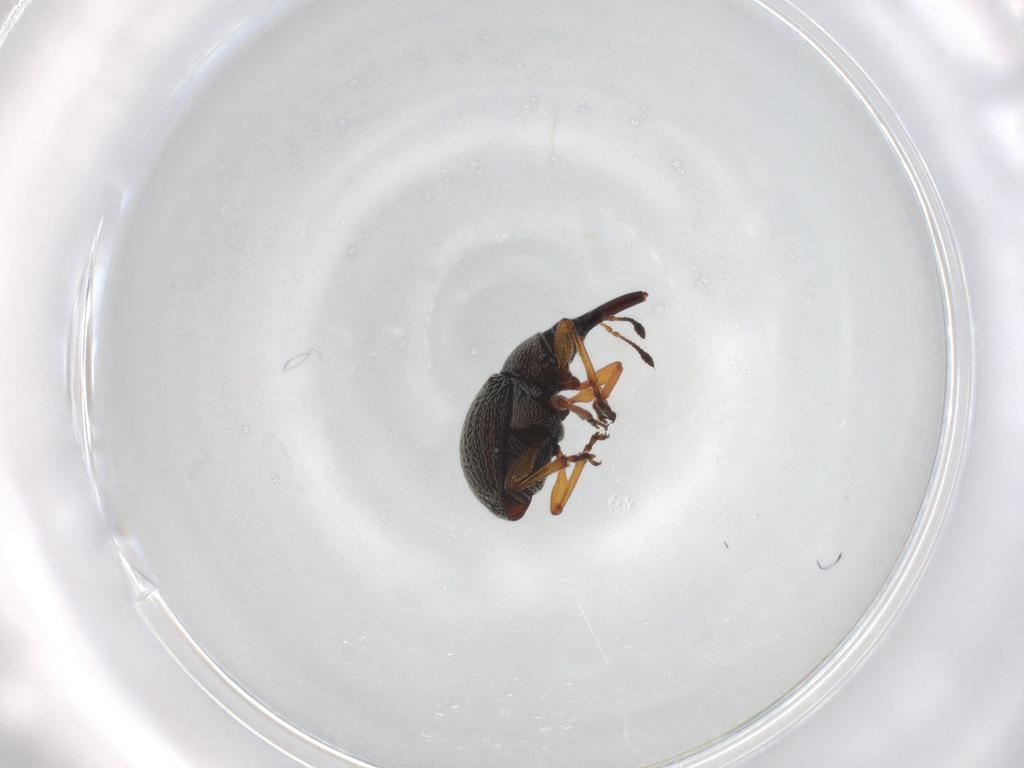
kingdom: Animalia
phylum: Arthropoda
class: Insecta
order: Coleoptera
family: Brentidae
